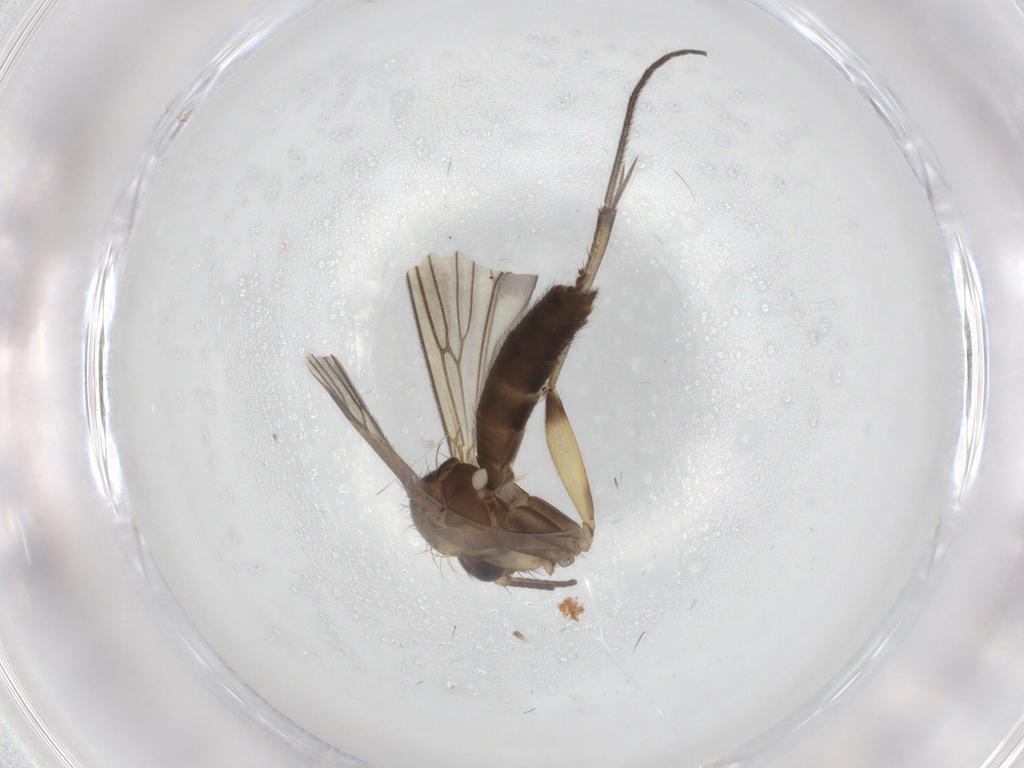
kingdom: Animalia
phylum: Arthropoda
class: Insecta
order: Diptera
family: Mycetophilidae
